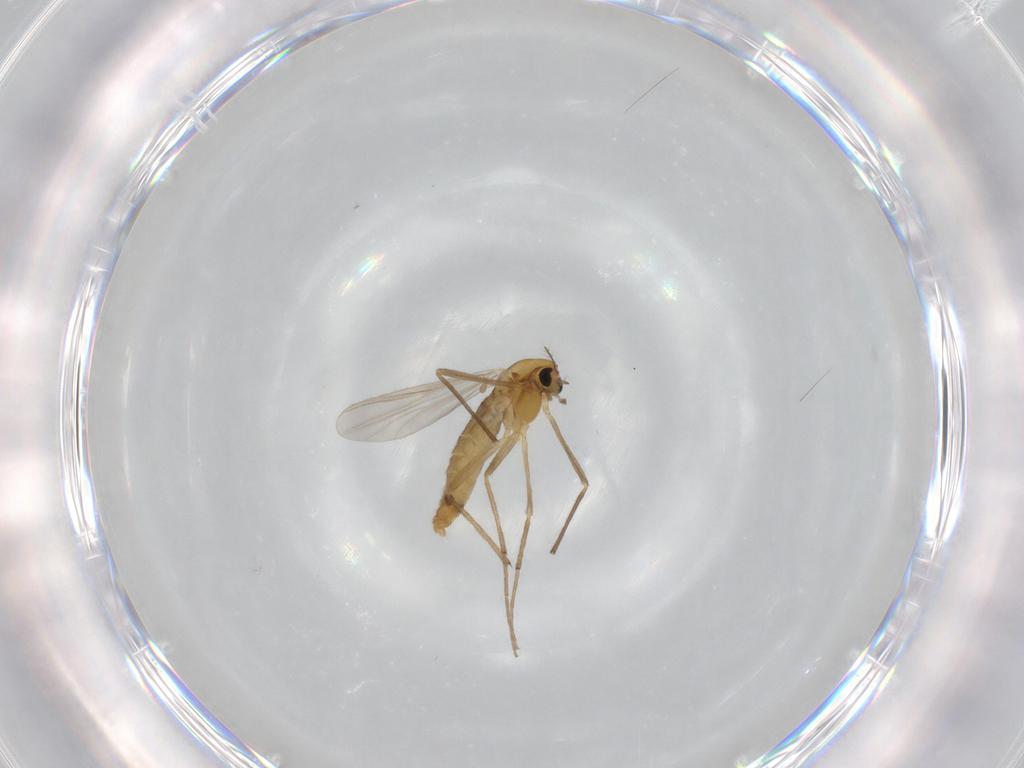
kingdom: Animalia
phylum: Arthropoda
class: Insecta
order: Diptera
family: Chironomidae
